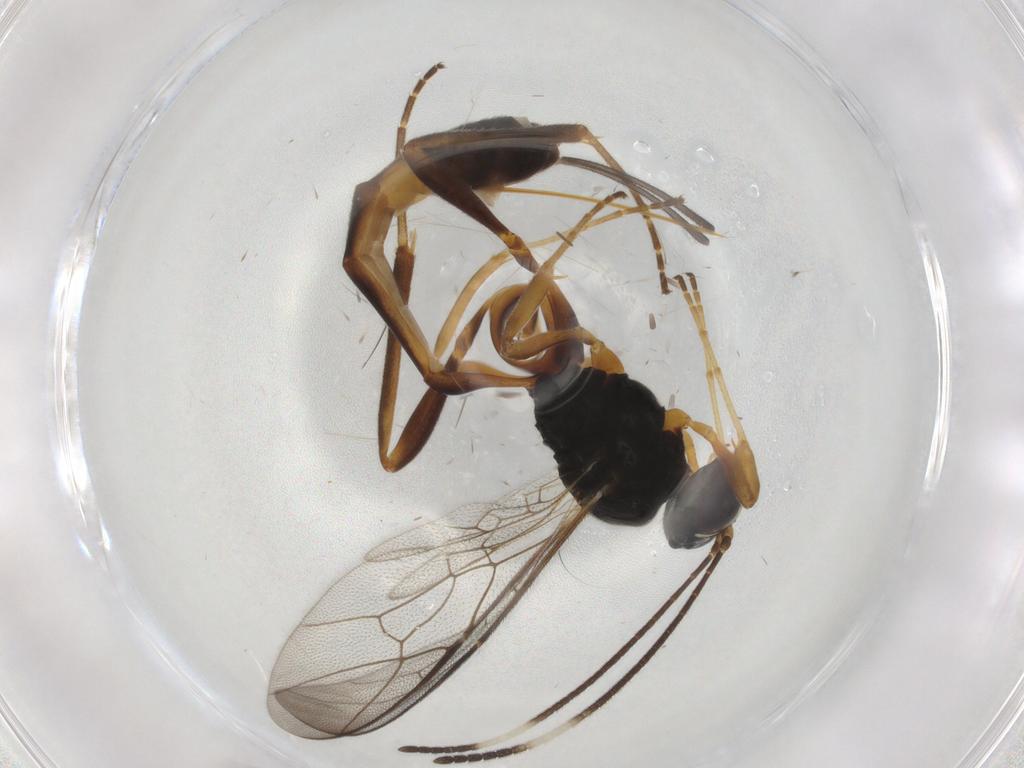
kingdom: Animalia
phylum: Arthropoda
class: Insecta
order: Hymenoptera
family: Ichneumonidae
